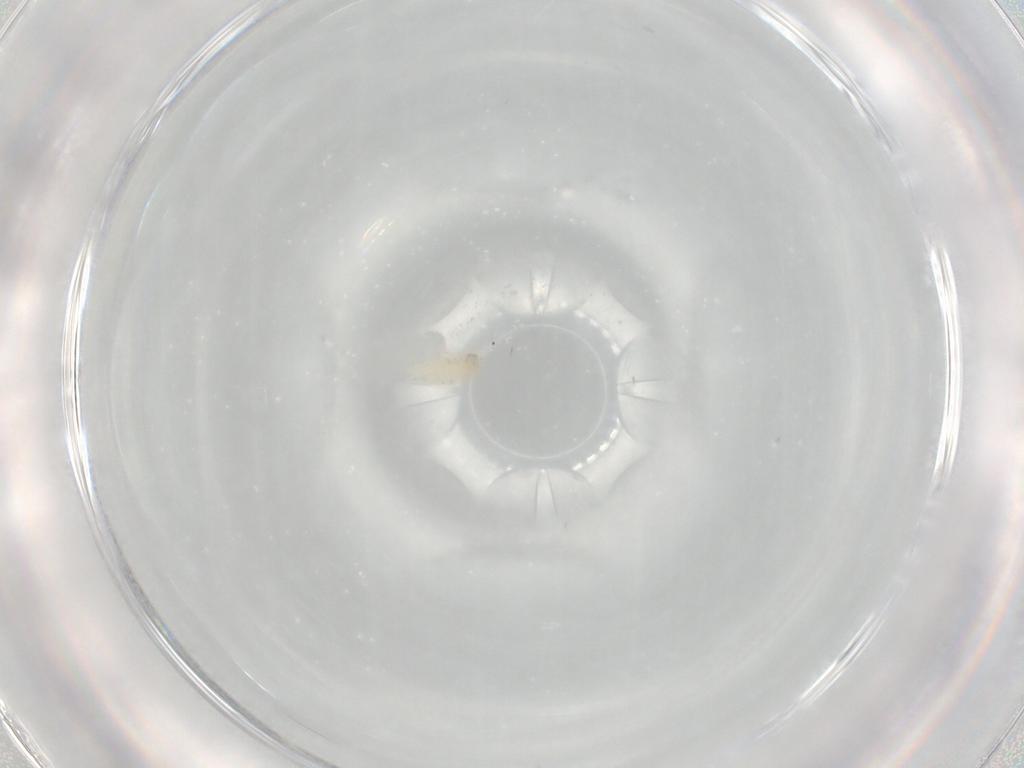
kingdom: Animalia
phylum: Arthropoda
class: Insecta
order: Coleoptera
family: Chrysomelidae
